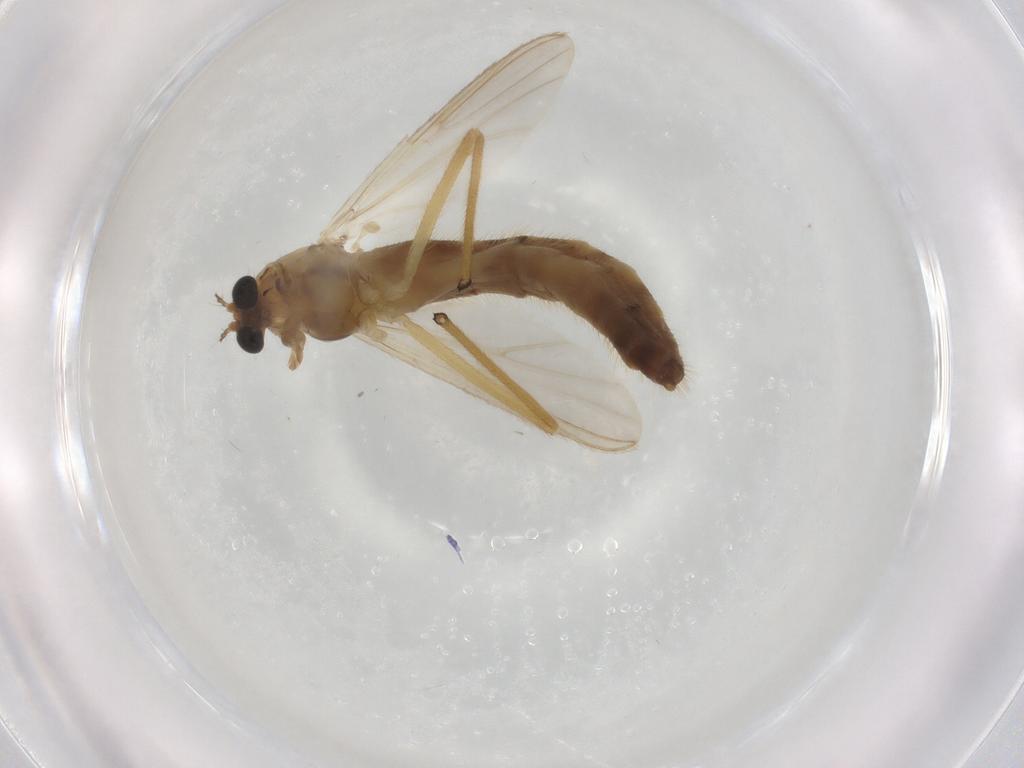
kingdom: Animalia
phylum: Arthropoda
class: Insecta
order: Diptera
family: Chironomidae
